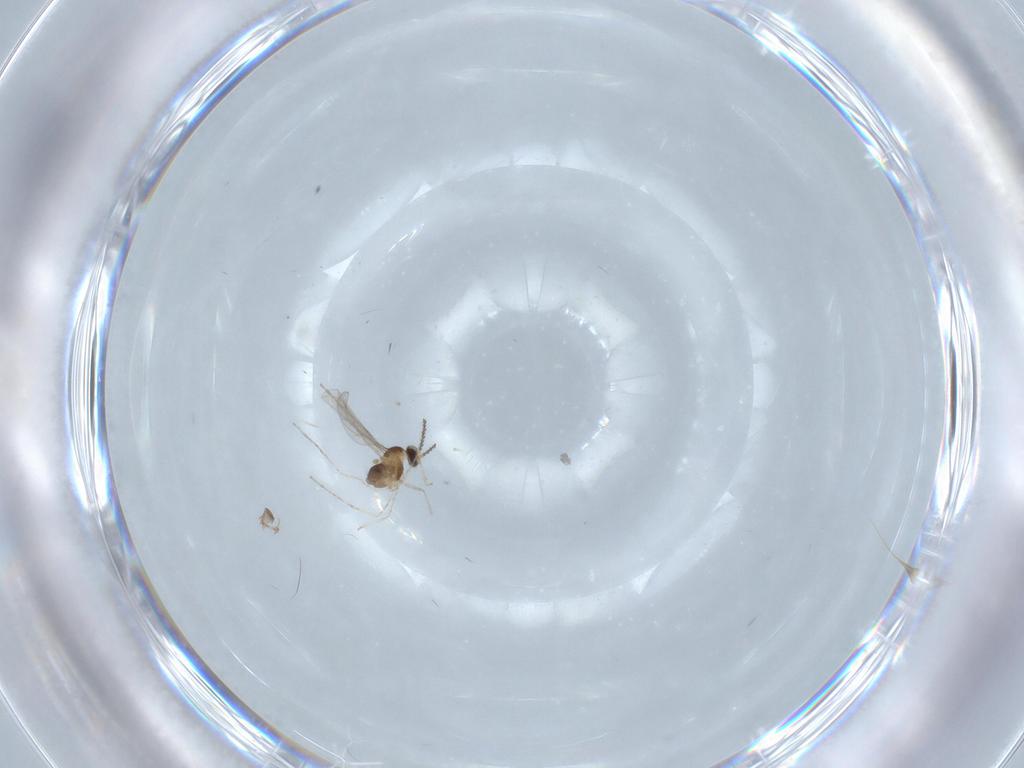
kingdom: Animalia
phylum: Arthropoda
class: Insecta
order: Diptera
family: Cecidomyiidae
